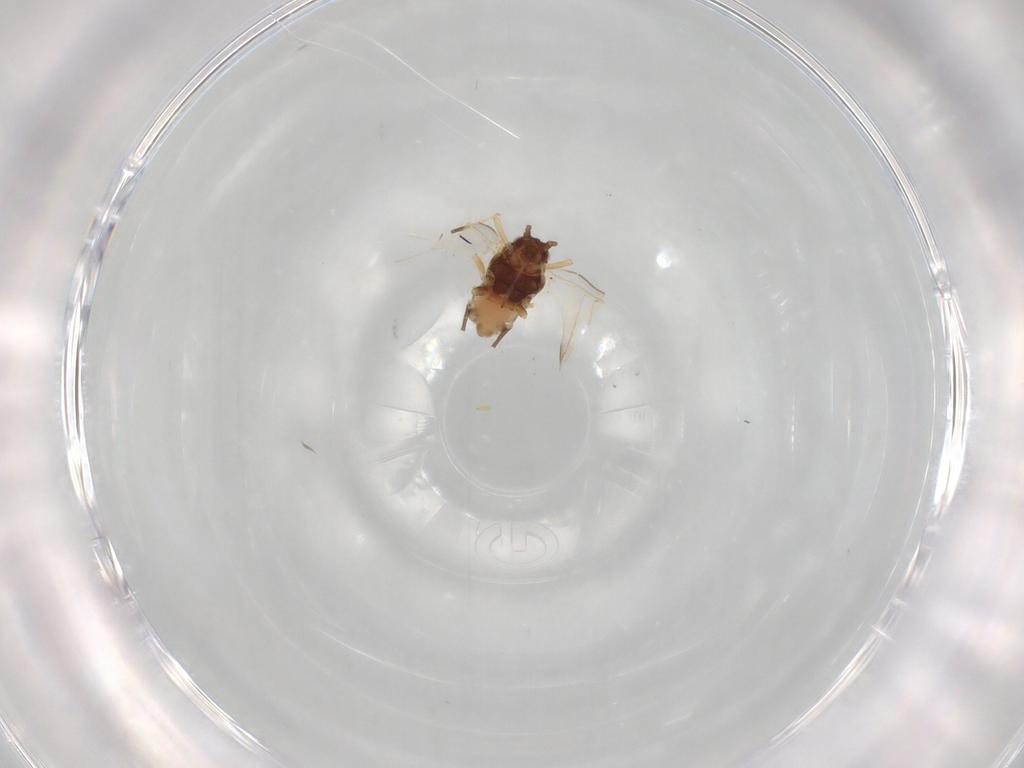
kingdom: Animalia
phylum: Arthropoda
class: Insecta
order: Hemiptera
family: Aphididae
